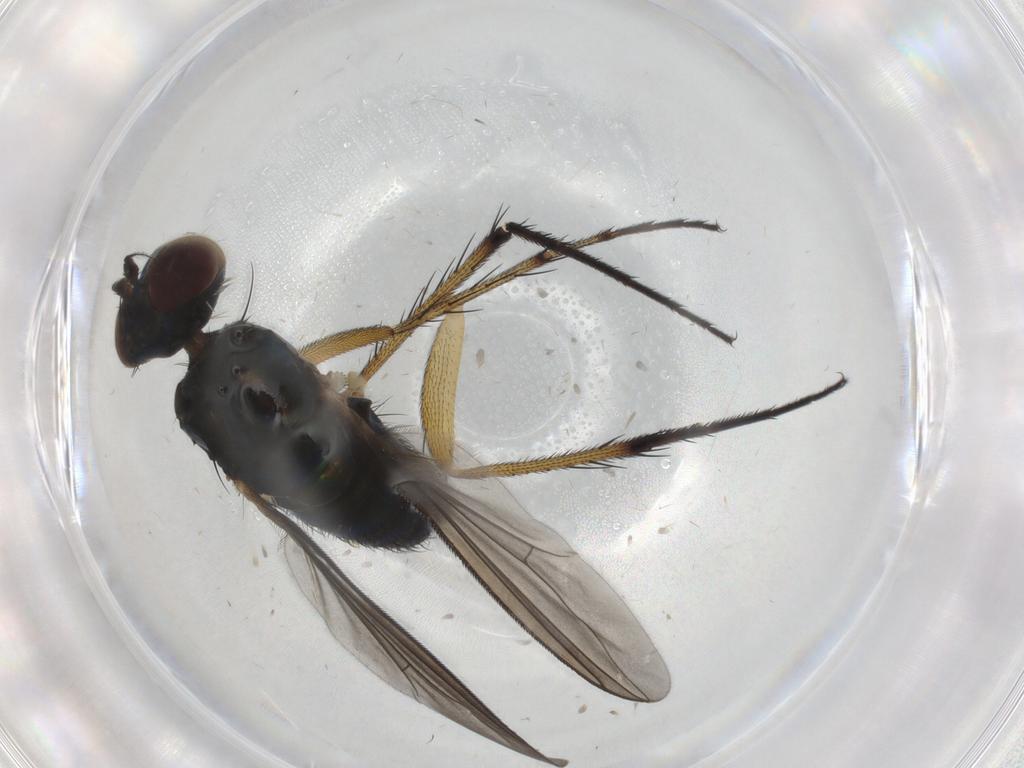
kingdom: Animalia
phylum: Arthropoda
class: Insecta
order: Diptera
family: Dolichopodidae
